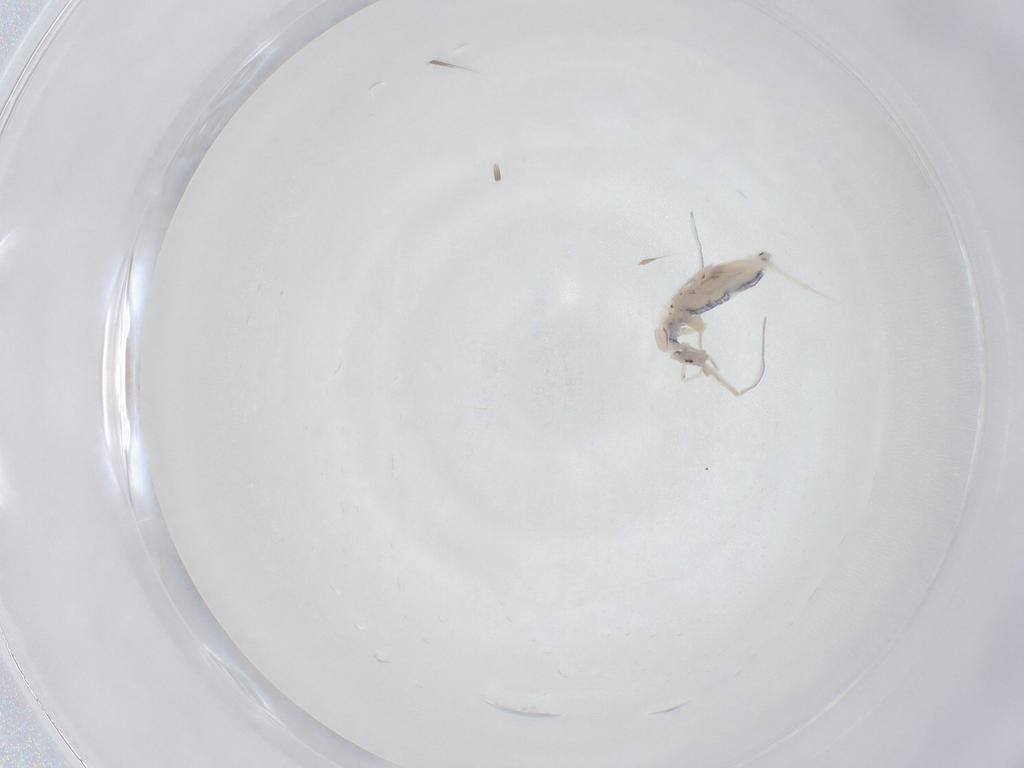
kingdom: Animalia
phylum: Arthropoda
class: Collembola
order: Entomobryomorpha
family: Entomobryidae
